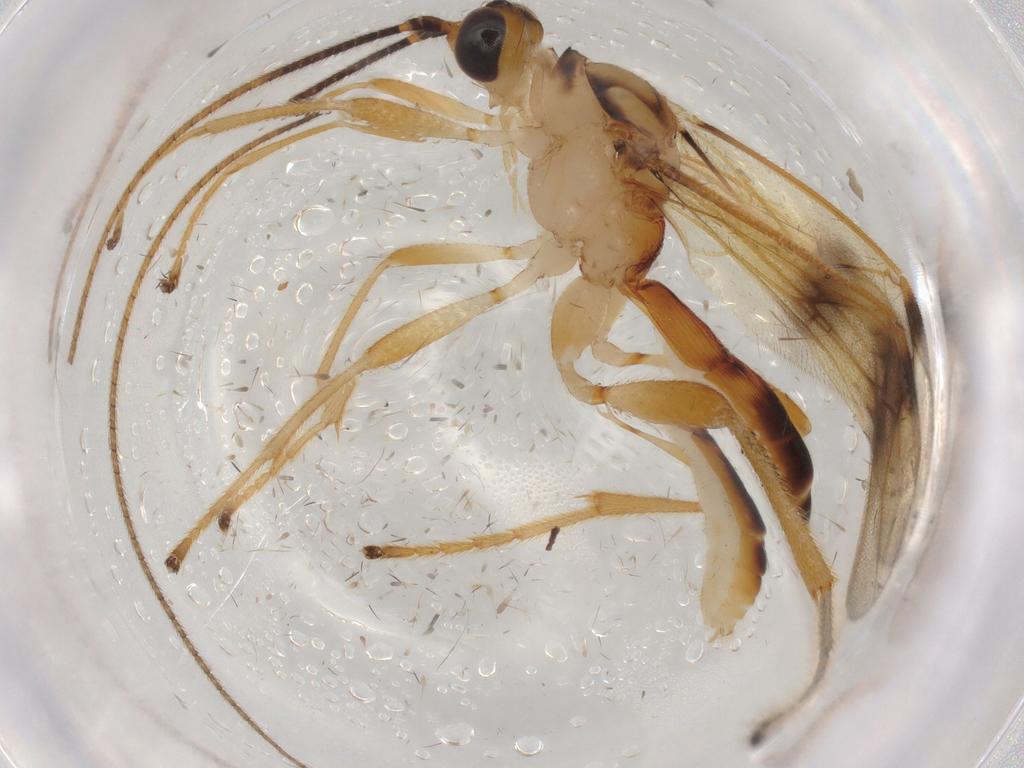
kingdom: Animalia
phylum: Arthropoda
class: Insecta
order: Diptera
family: Phoridae
